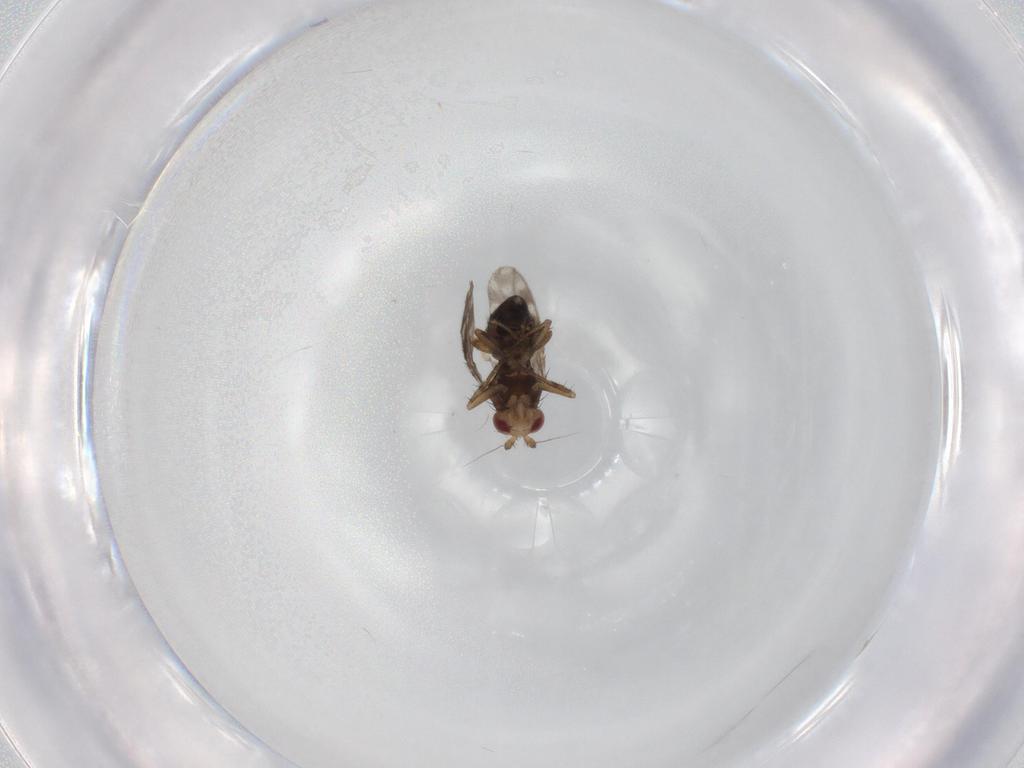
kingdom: Animalia
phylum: Arthropoda
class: Insecta
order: Diptera
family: Sphaeroceridae
